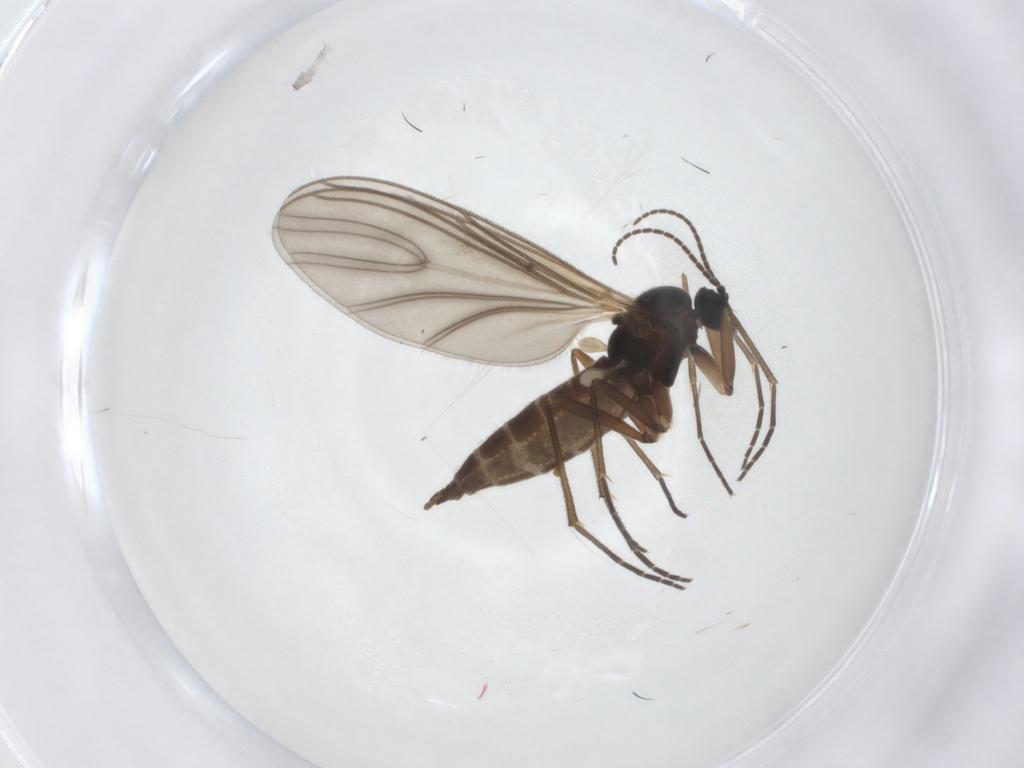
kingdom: Animalia
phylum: Arthropoda
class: Insecta
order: Diptera
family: Sciaridae
